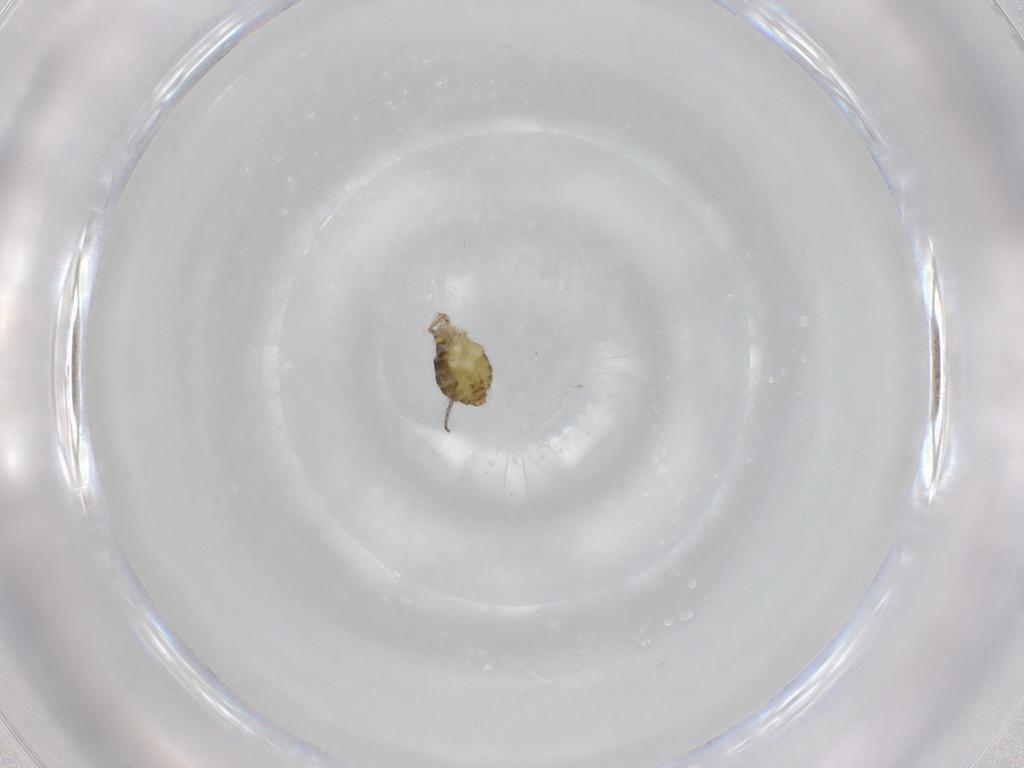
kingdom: Animalia
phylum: Arthropoda
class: Insecta
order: Diptera
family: Ceratopogonidae
